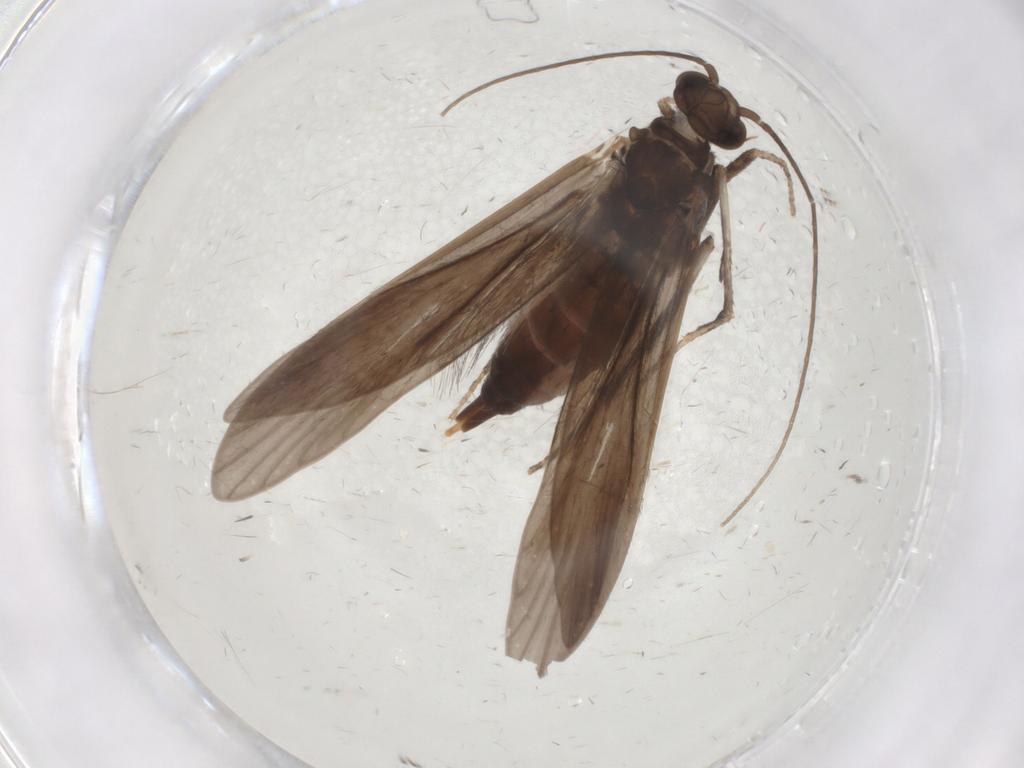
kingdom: Animalia
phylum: Arthropoda
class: Insecta
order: Trichoptera
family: Xiphocentronidae
